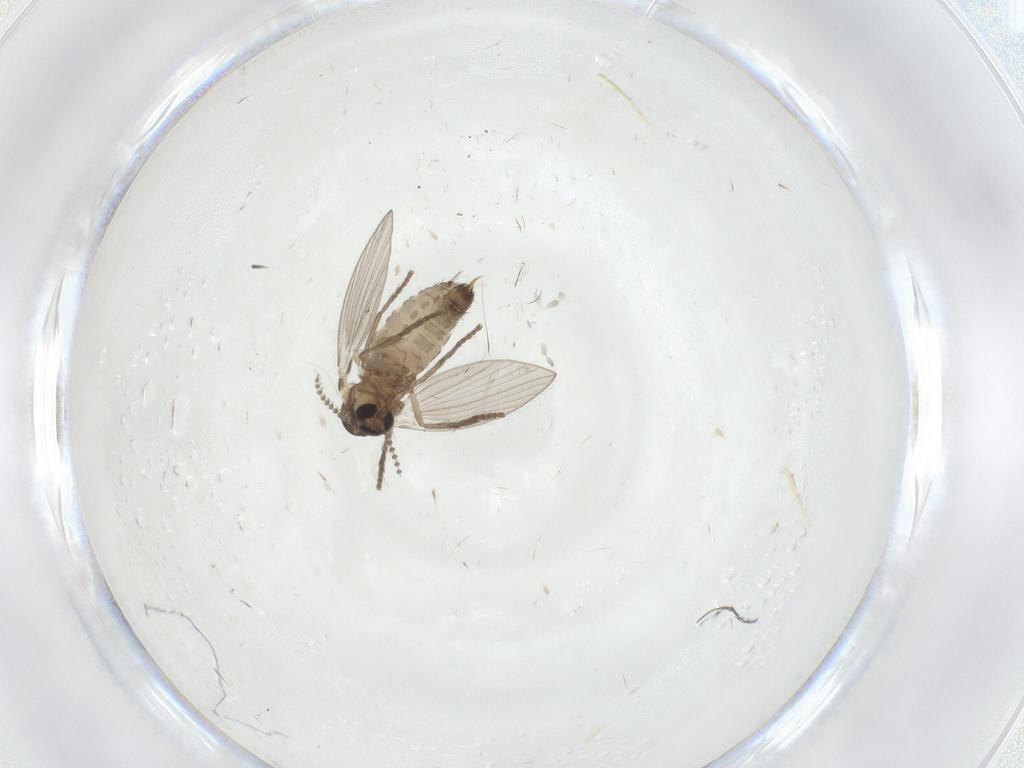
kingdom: Animalia
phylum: Arthropoda
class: Insecta
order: Diptera
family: Psychodidae
